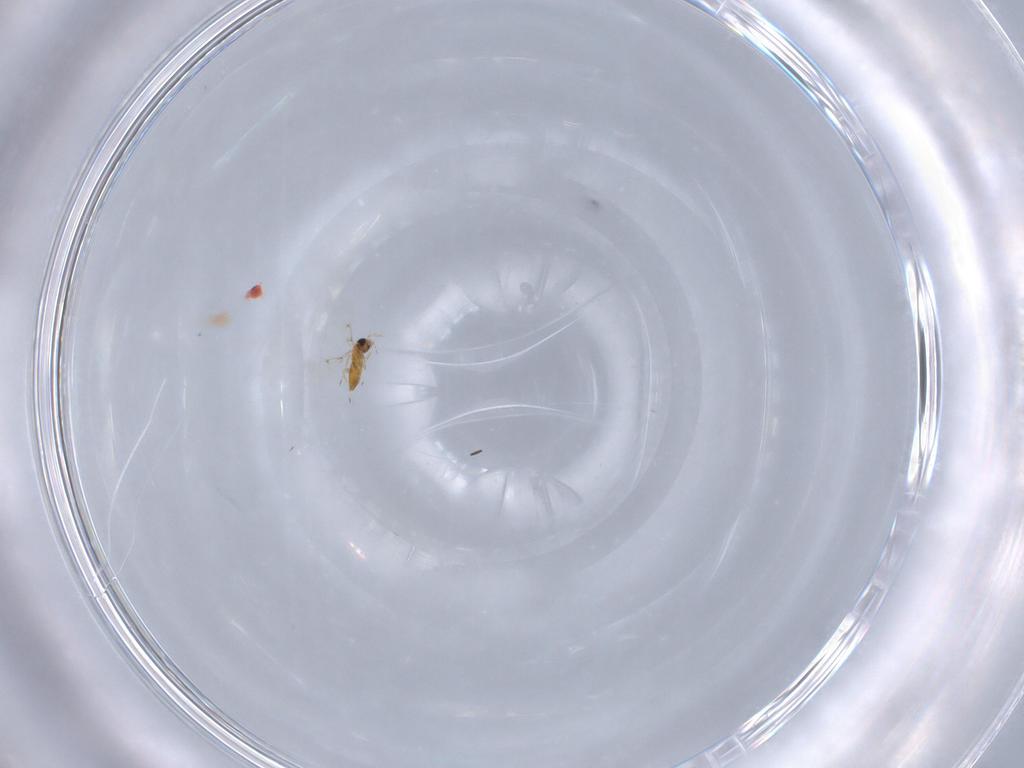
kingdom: Animalia
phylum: Arthropoda
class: Insecta
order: Hymenoptera
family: Trichogrammatidae
